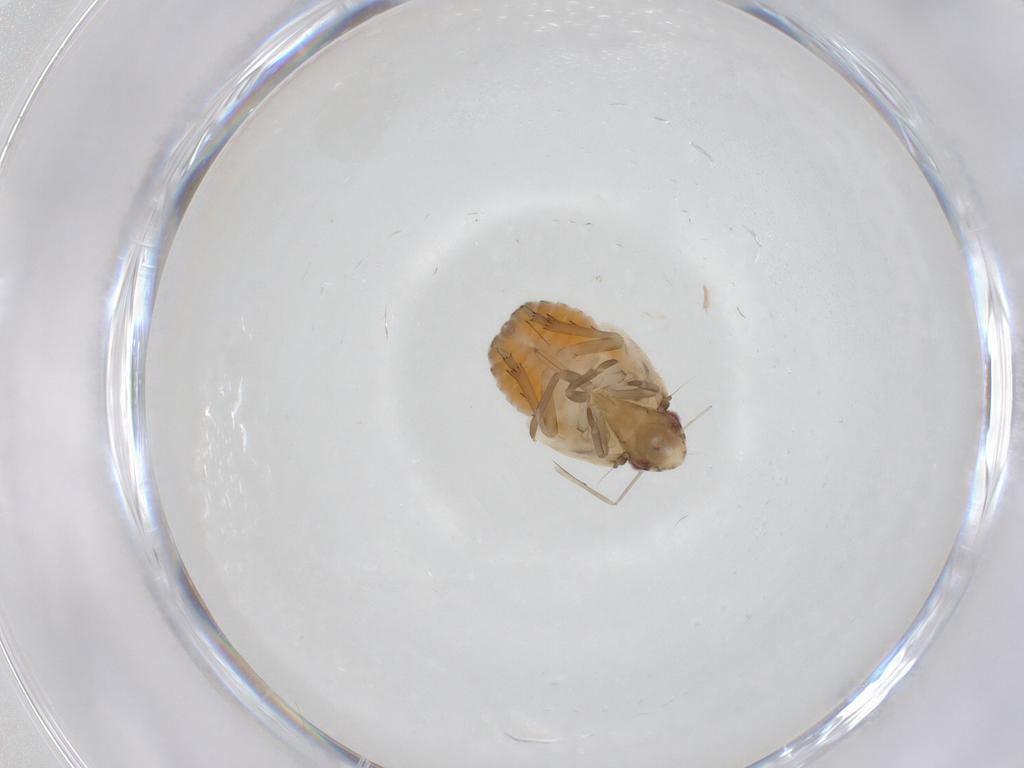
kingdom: Animalia
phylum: Arthropoda
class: Insecta
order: Hemiptera
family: Flatidae
